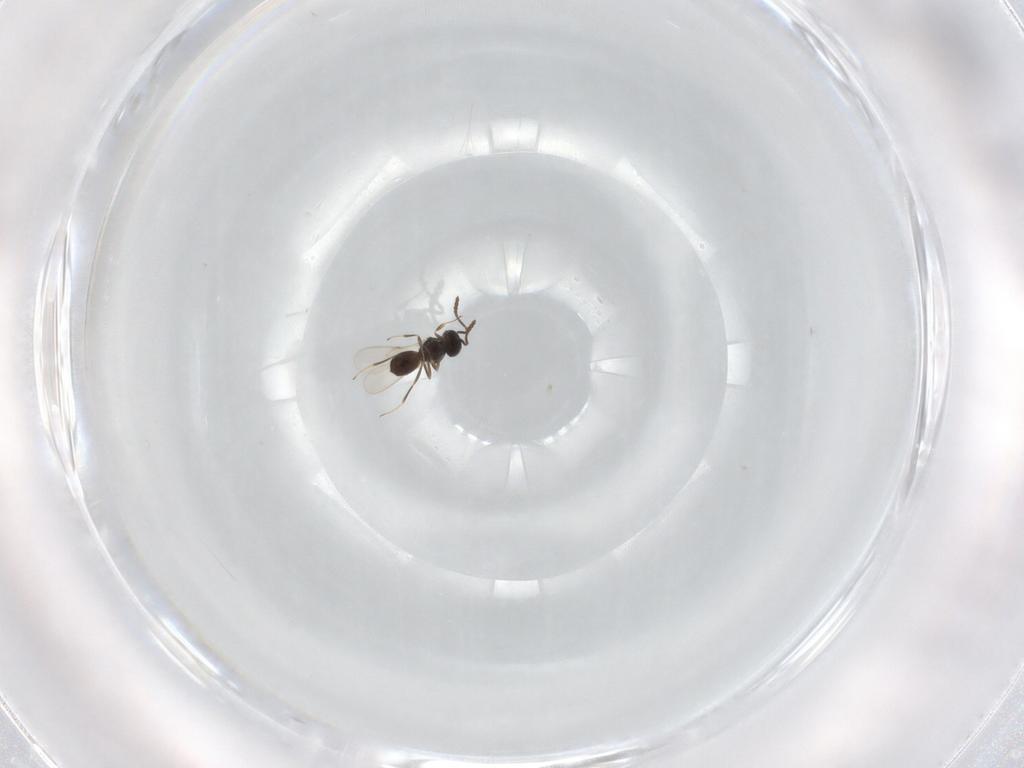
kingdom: Animalia
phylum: Arthropoda
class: Insecta
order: Hymenoptera
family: Scelionidae
